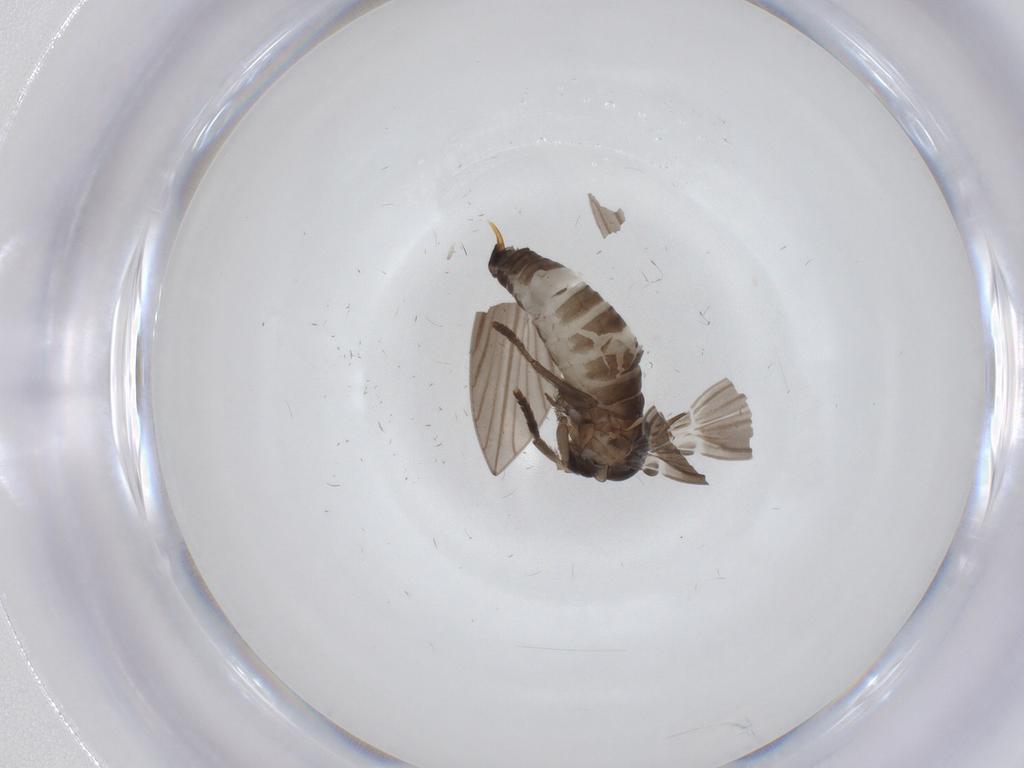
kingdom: Animalia
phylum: Arthropoda
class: Insecta
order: Diptera
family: Psychodidae
